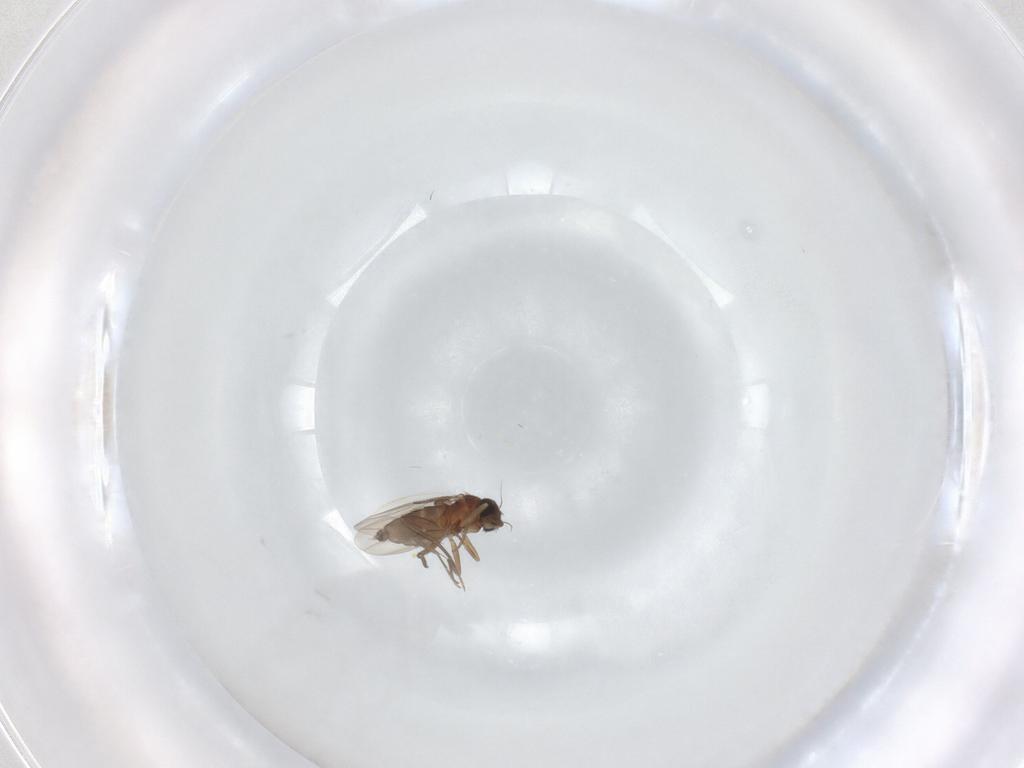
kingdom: Animalia
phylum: Arthropoda
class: Insecta
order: Diptera
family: Phoridae
